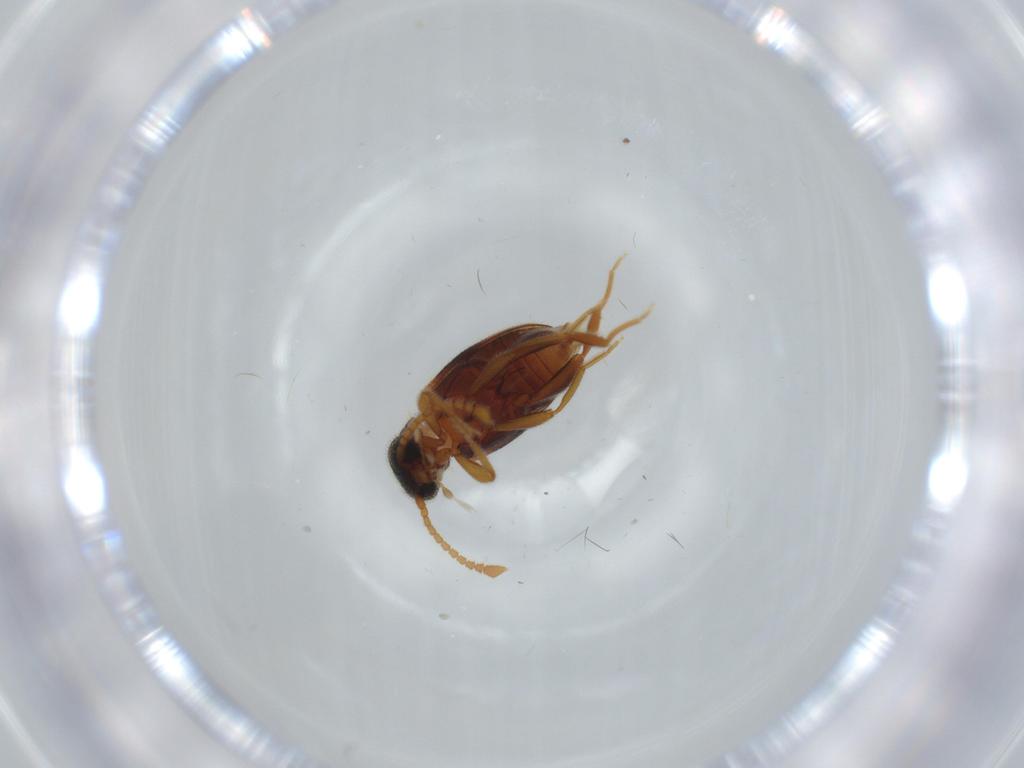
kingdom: Animalia
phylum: Arthropoda
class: Insecta
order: Coleoptera
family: Aderidae
